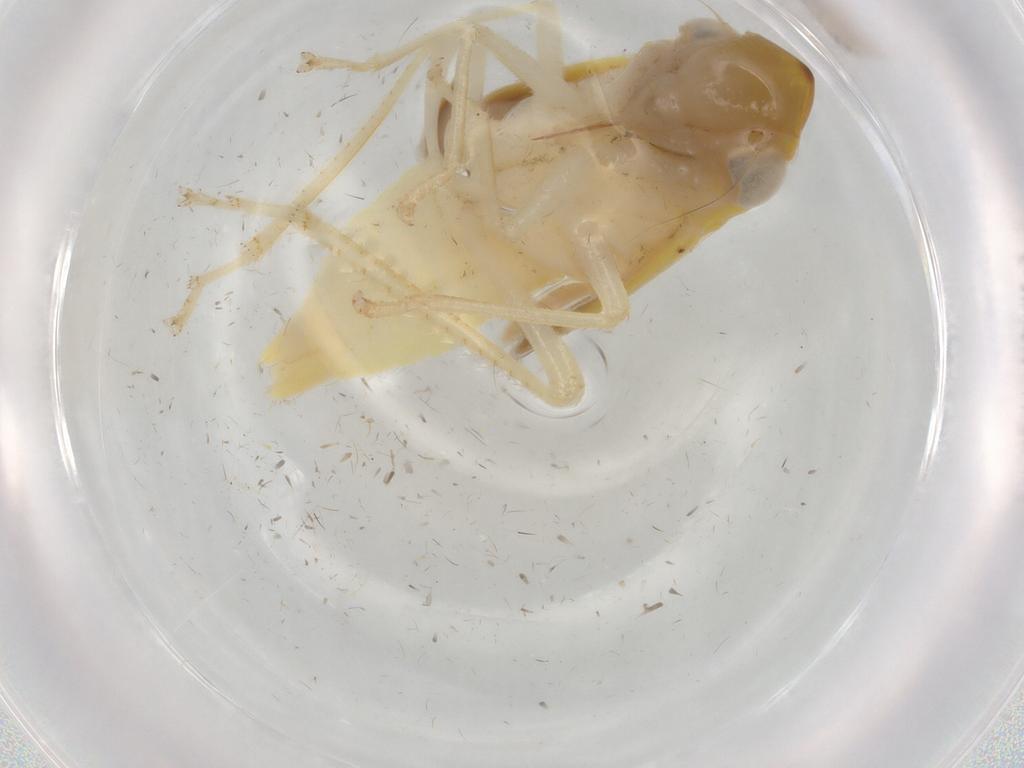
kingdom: Animalia
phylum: Arthropoda
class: Insecta
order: Hemiptera
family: Cicadellidae
